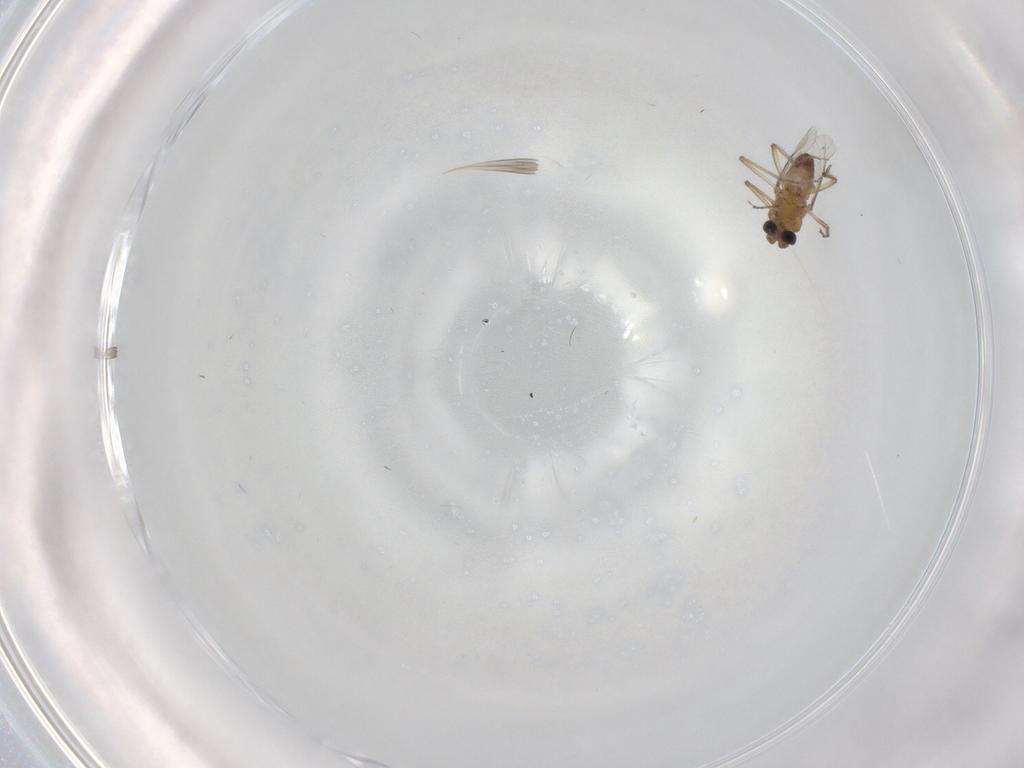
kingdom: Animalia
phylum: Arthropoda
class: Insecta
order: Diptera
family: Ceratopogonidae
